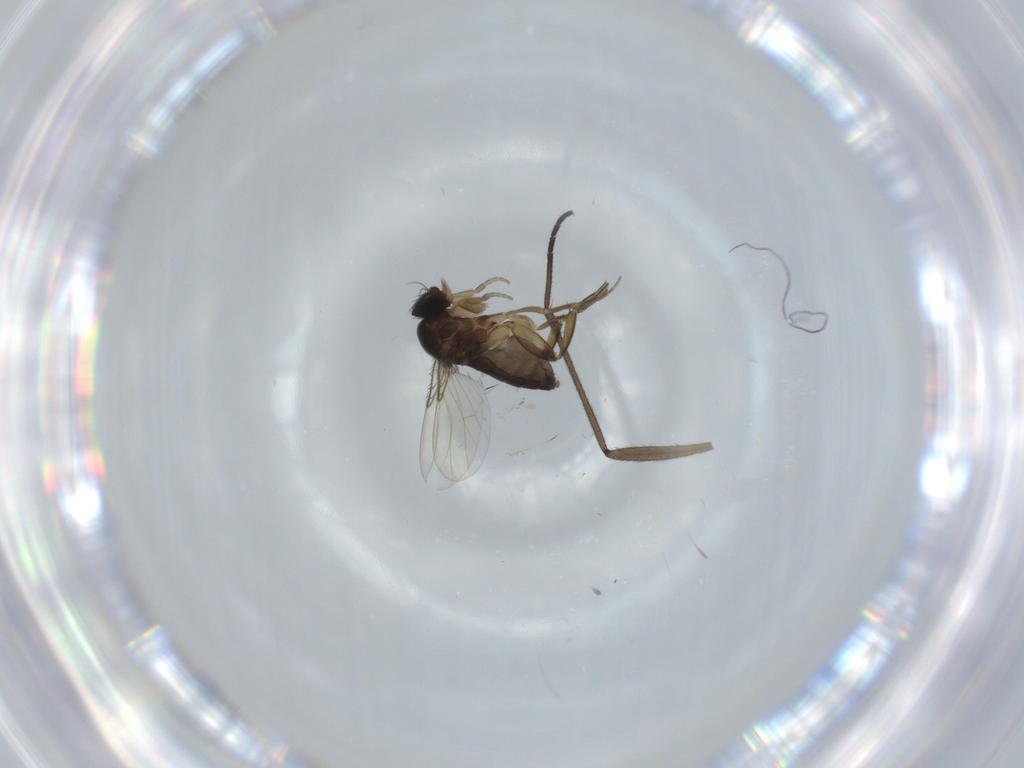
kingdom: Animalia
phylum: Arthropoda
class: Insecta
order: Diptera
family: Phoridae
